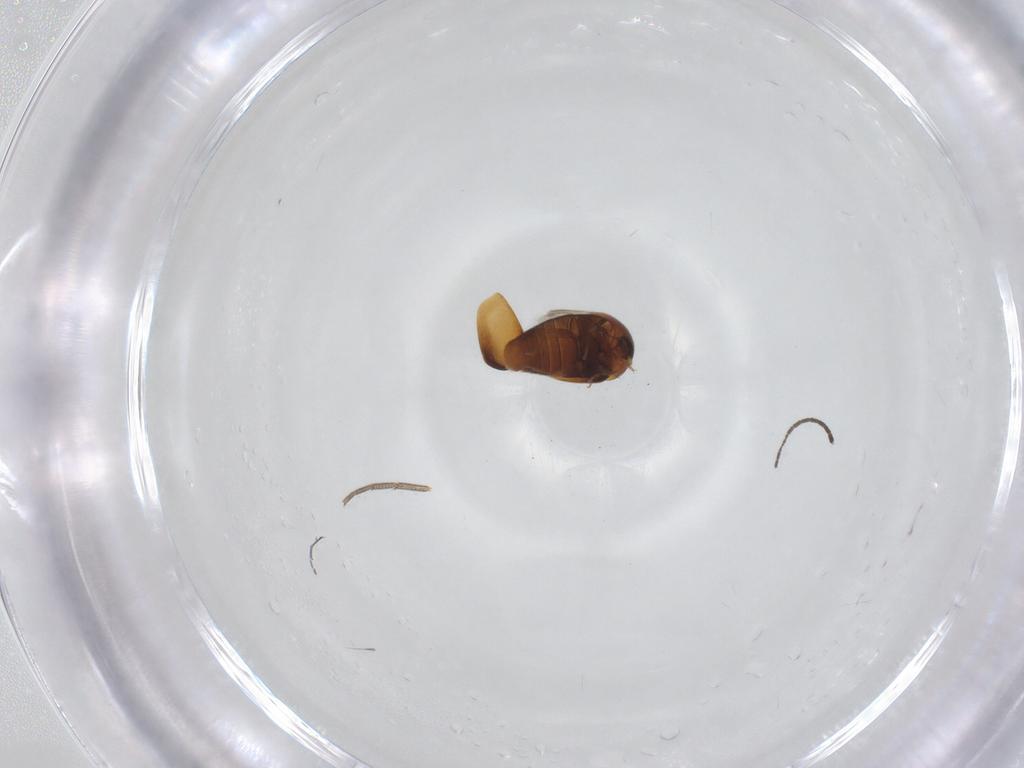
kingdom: Animalia
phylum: Arthropoda
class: Insecta
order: Coleoptera
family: Corylophidae
